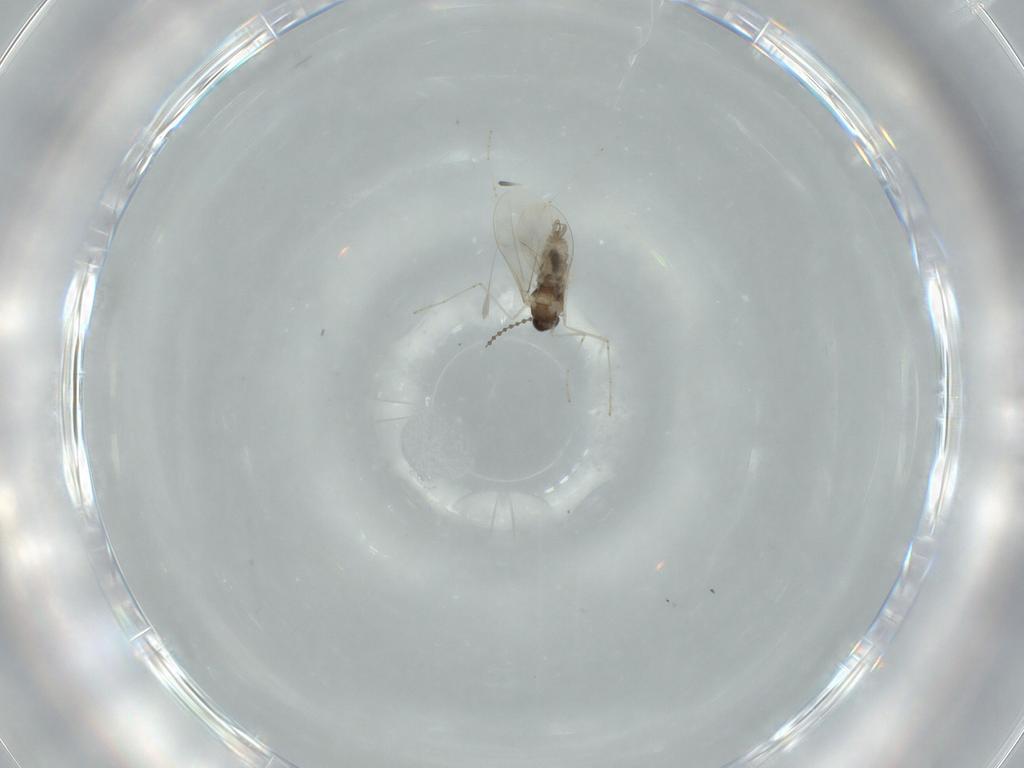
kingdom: Animalia
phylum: Arthropoda
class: Insecta
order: Diptera
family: Cecidomyiidae
